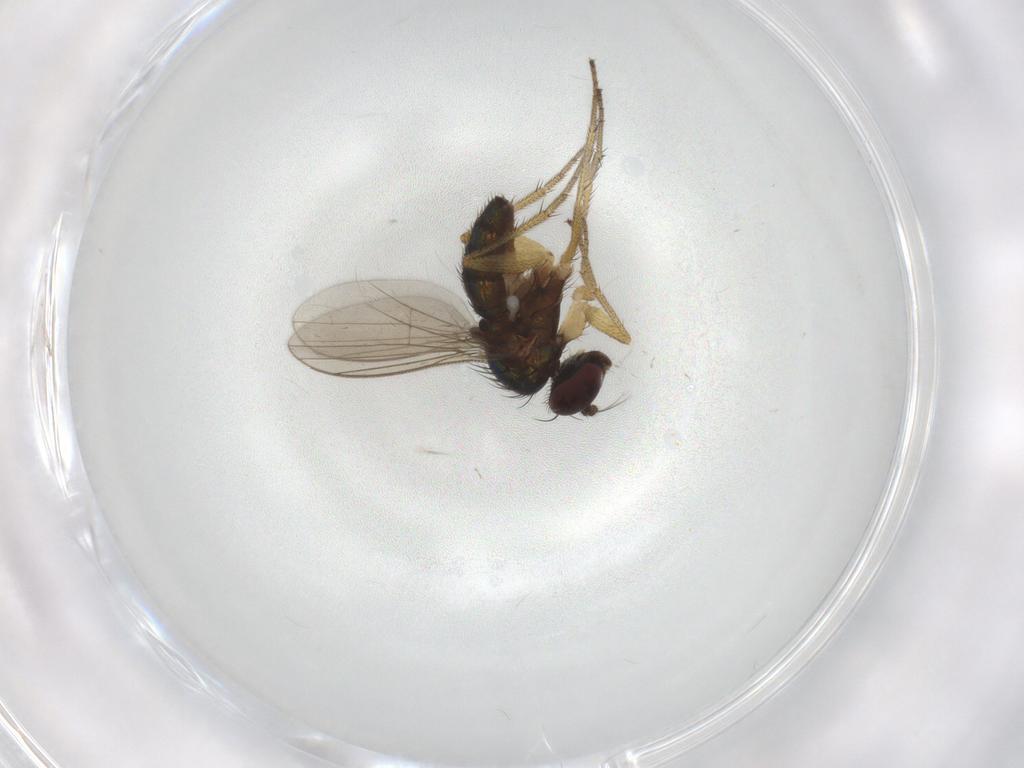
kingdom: Animalia
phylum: Arthropoda
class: Insecta
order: Diptera
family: Dolichopodidae
